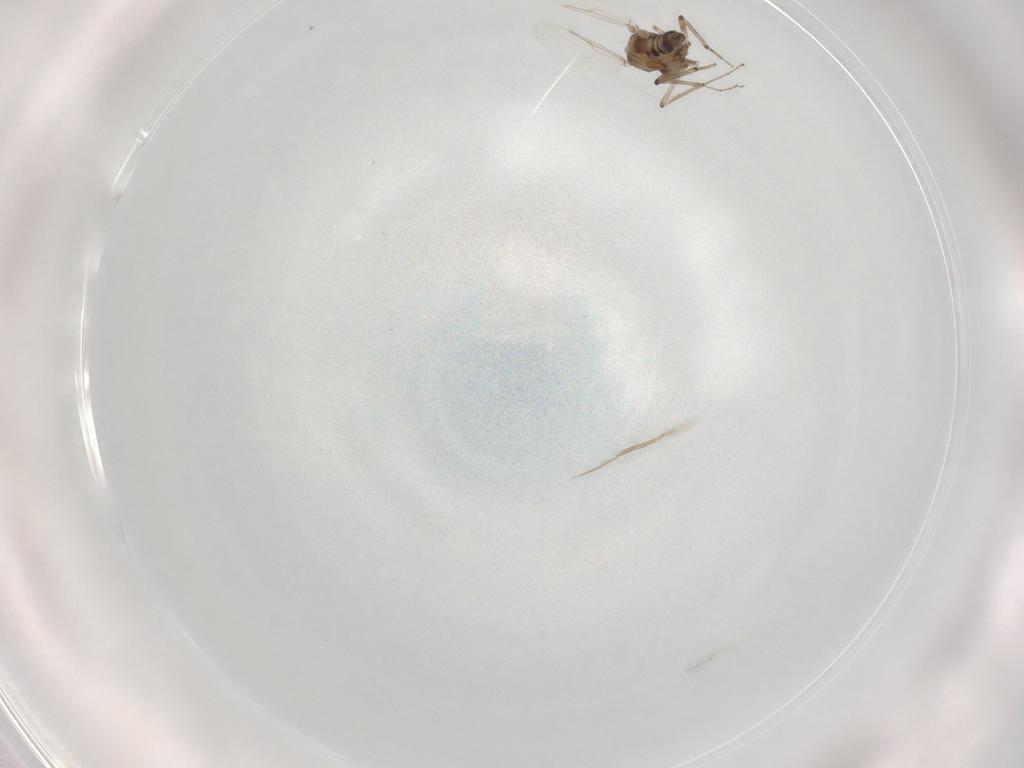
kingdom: Animalia
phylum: Arthropoda
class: Insecta
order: Diptera
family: Ceratopogonidae
